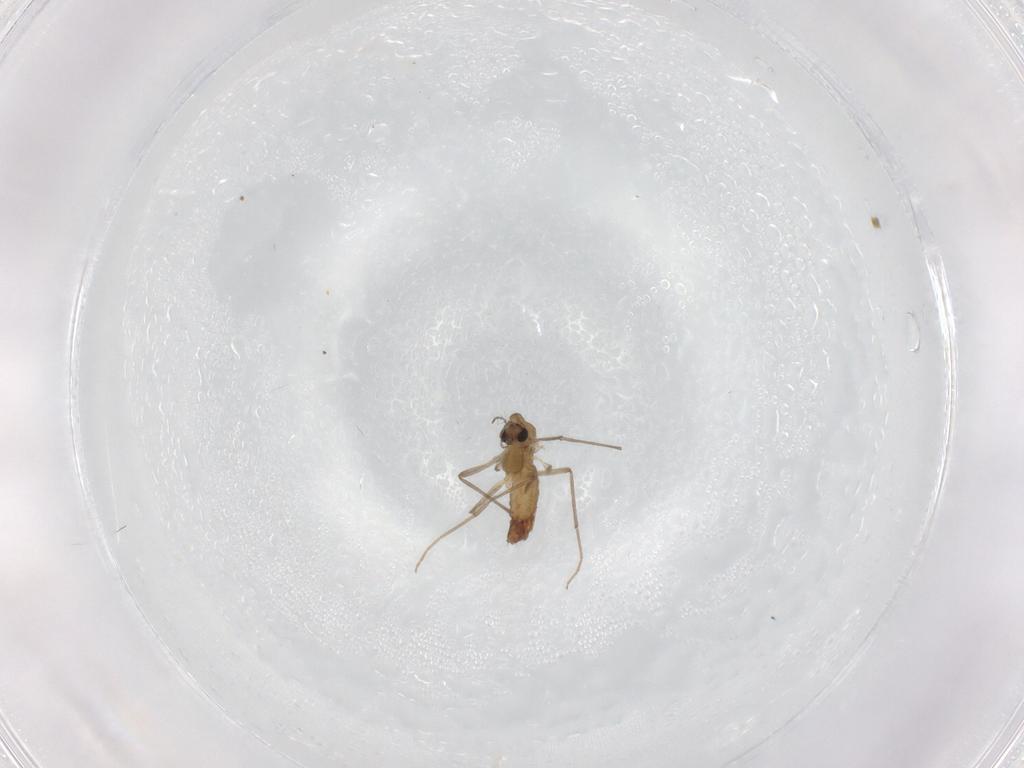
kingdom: Animalia
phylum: Arthropoda
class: Insecta
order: Diptera
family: Chironomidae
